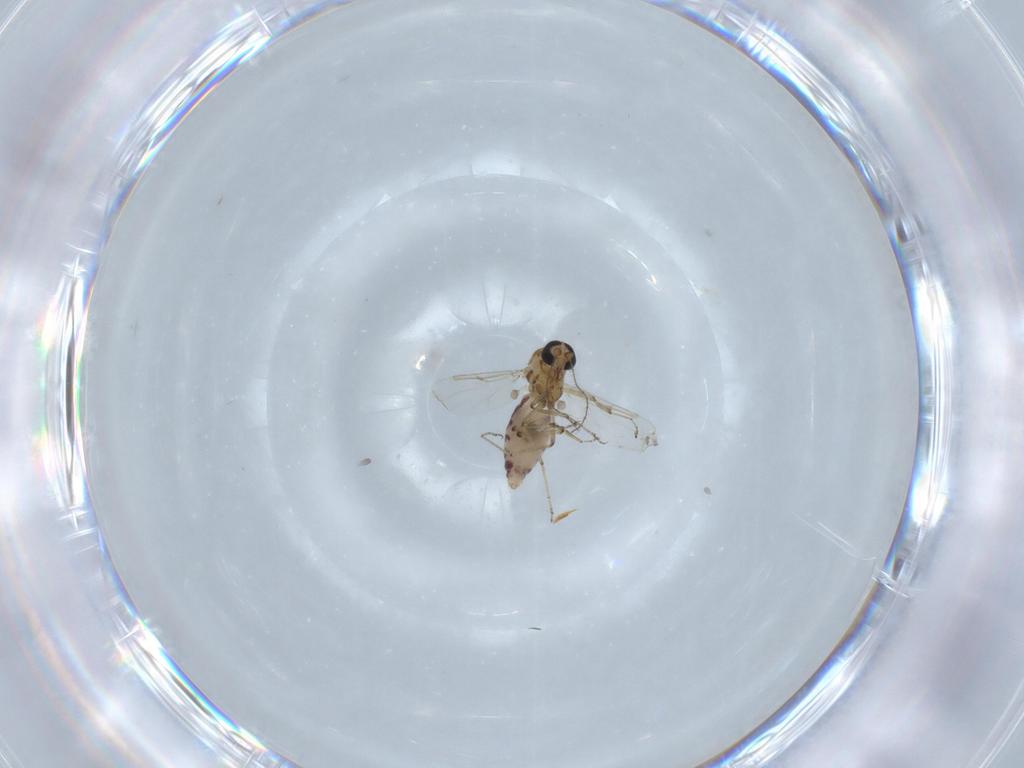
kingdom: Animalia
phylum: Arthropoda
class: Insecta
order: Diptera
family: Ceratopogonidae
